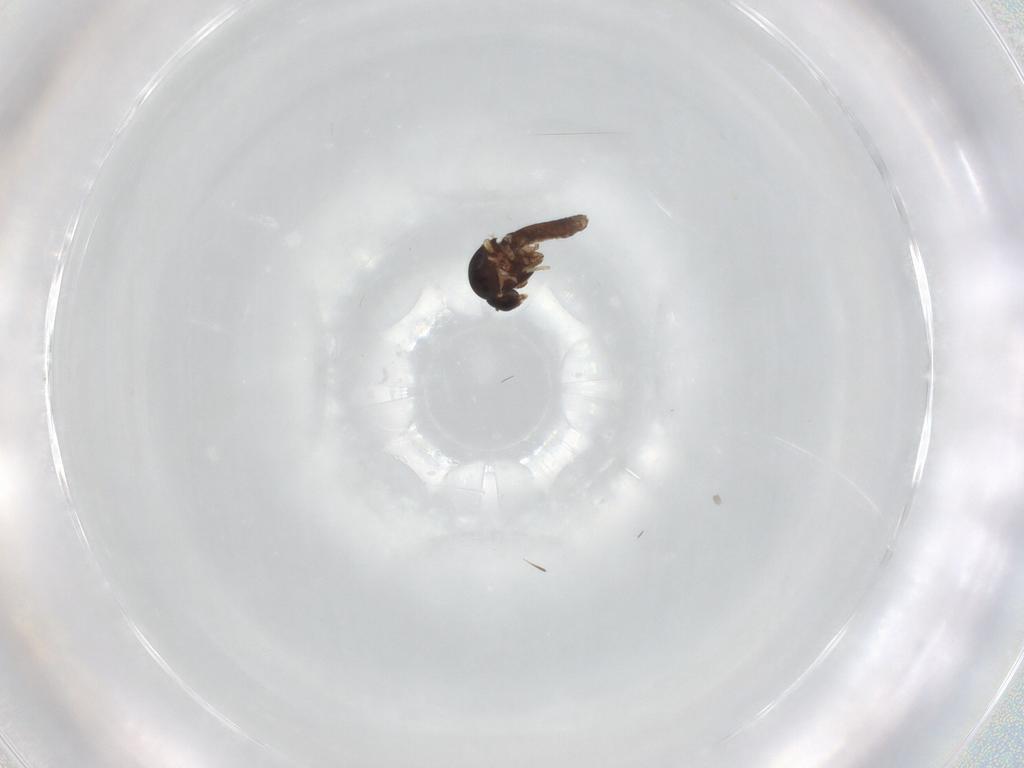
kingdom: Animalia
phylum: Arthropoda
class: Insecta
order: Diptera
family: Ceratopogonidae
